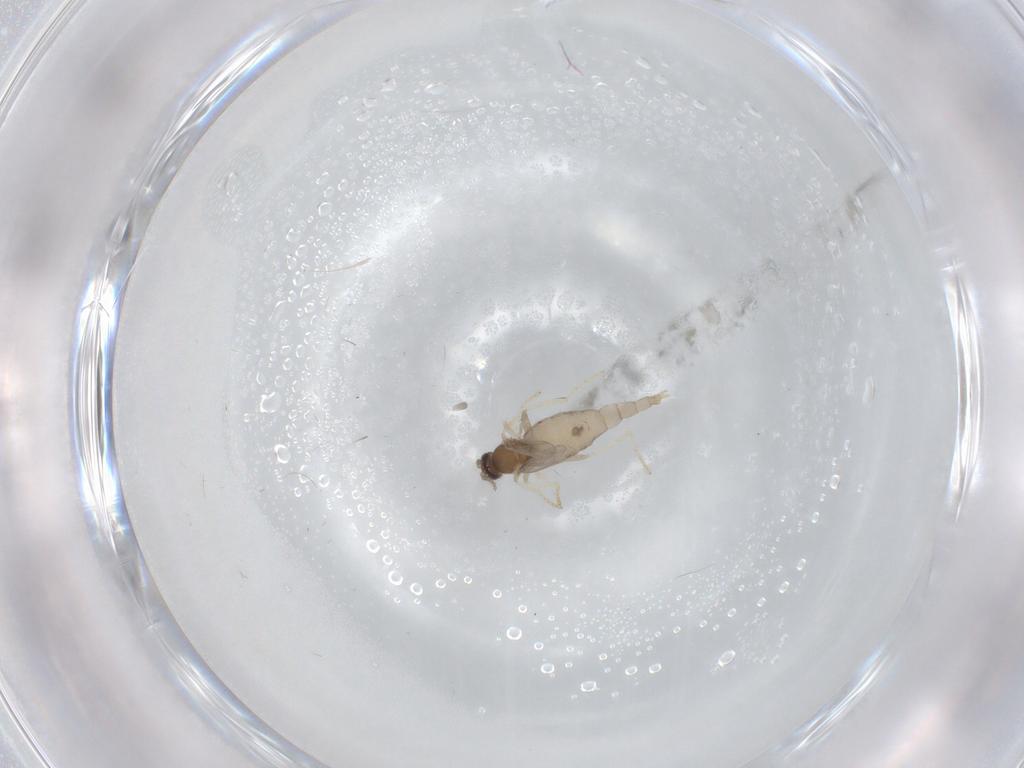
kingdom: Animalia
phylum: Arthropoda
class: Insecta
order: Diptera
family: Cecidomyiidae
